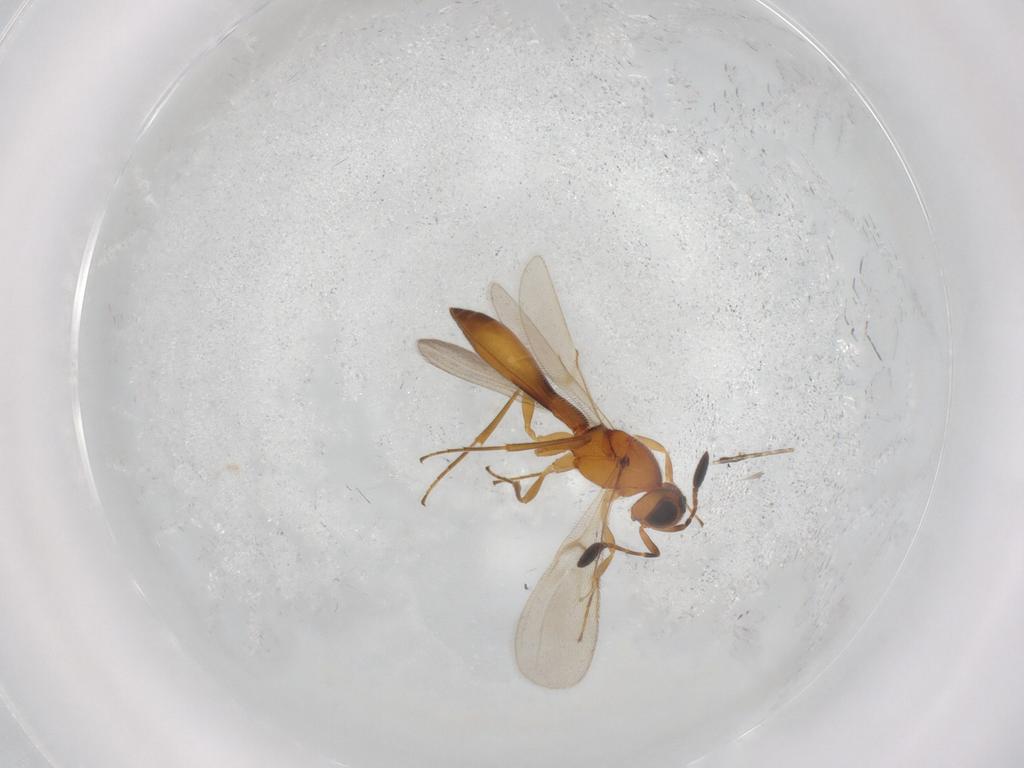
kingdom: Animalia
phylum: Arthropoda
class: Insecta
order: Hymenoptera
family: Scelionidae
